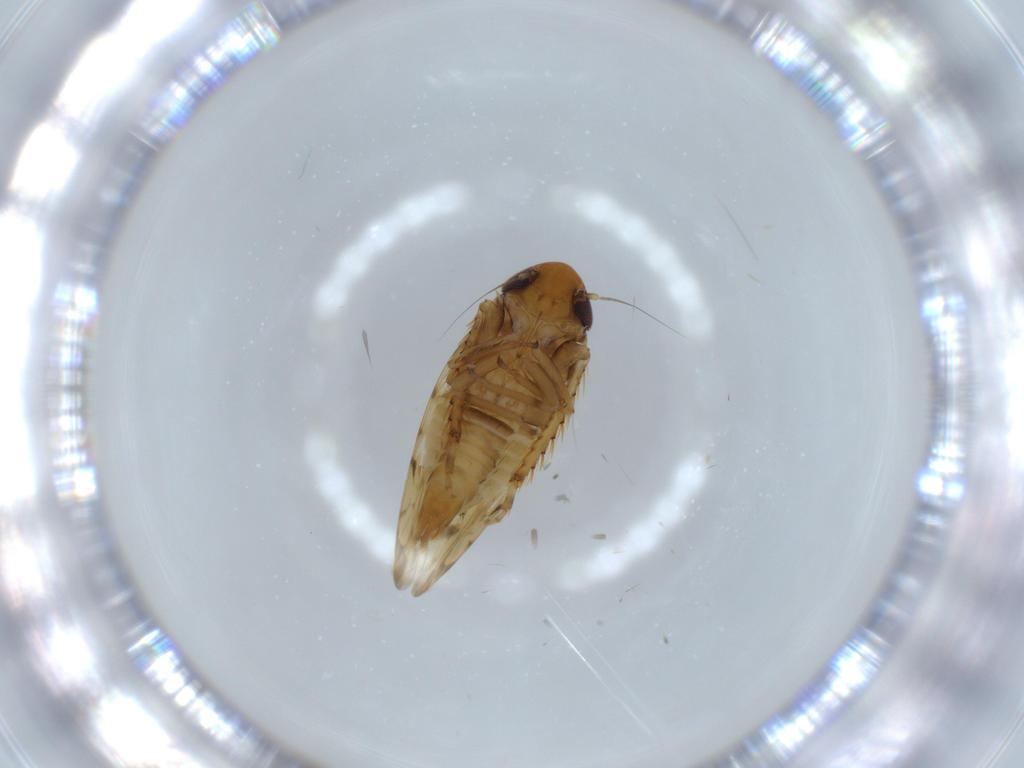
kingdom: Animalia
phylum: Arthropoda
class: Insecta
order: Hemiptera
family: Cicadellidae
